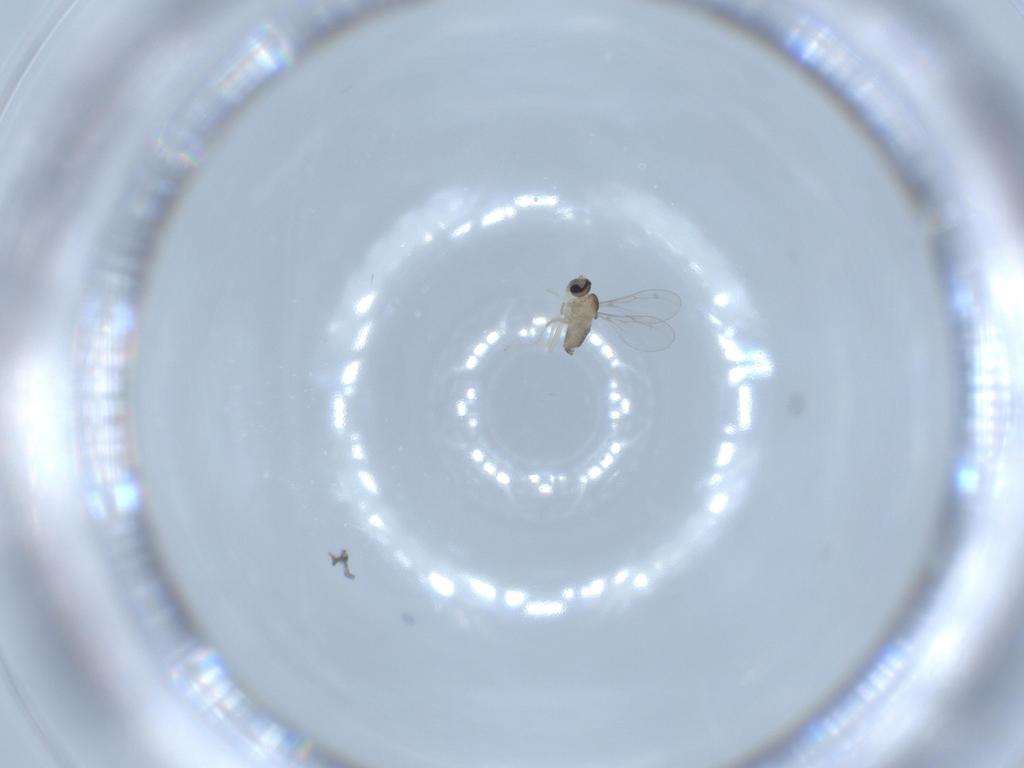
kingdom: Animalia
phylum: Arthropoda
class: Insecta
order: Diptera
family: Cecidomyiidae
